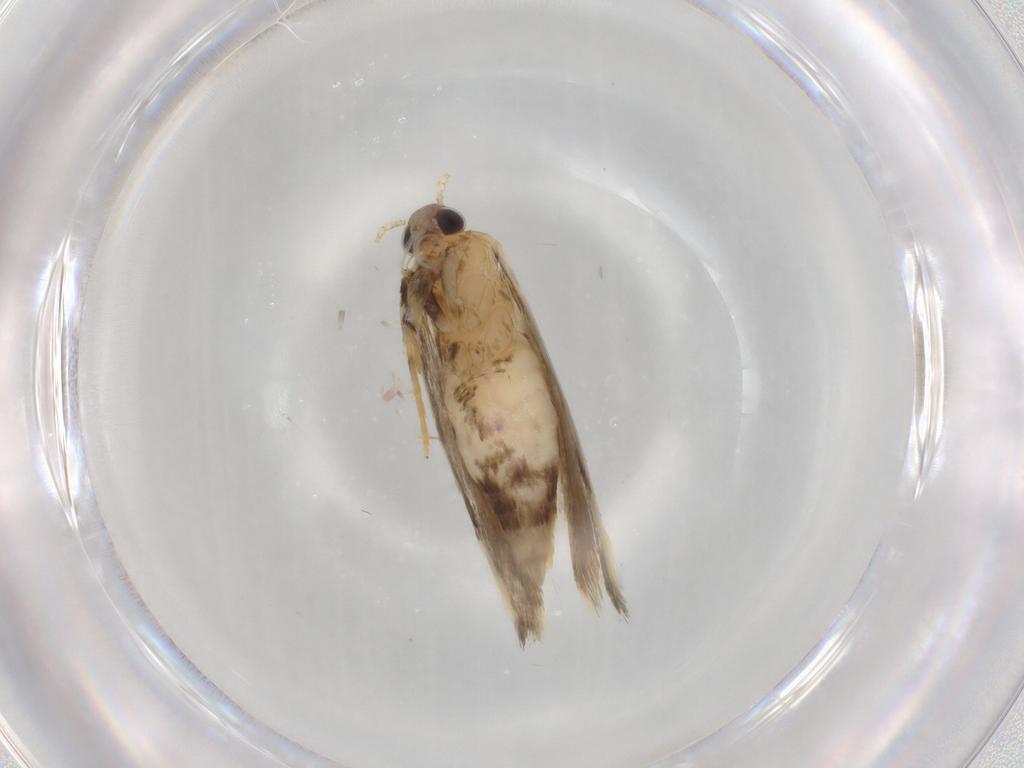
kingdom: Animalia
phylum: Arthropoda
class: Insecta
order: Lepidoptera
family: Autostichidae
